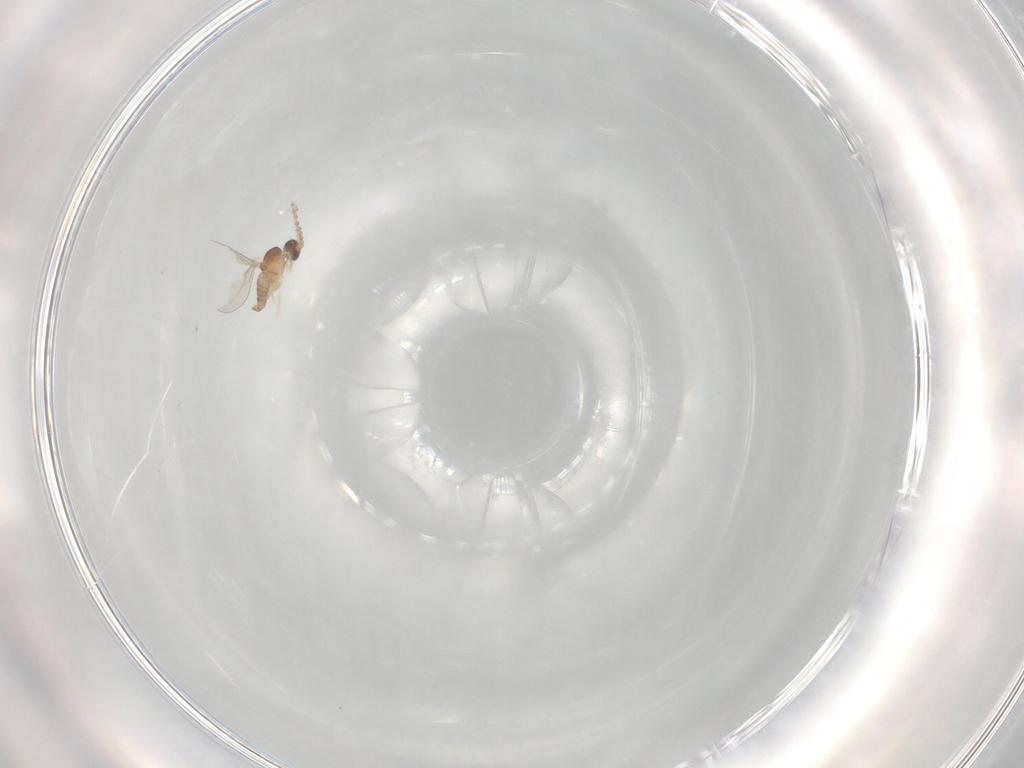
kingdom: Animalia
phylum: Arthropoda
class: Insecta
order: Diptera
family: Cecidomyiidae
